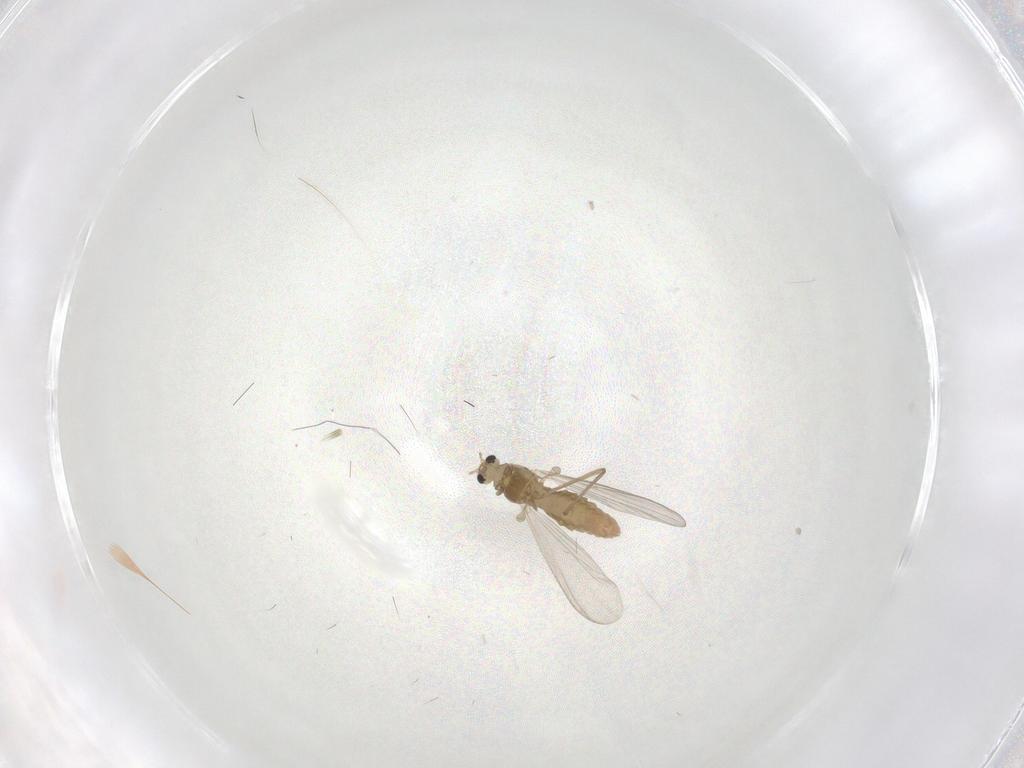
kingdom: Animalia
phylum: Arthropoda
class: Insecta
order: Diptera
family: Chironomidae
